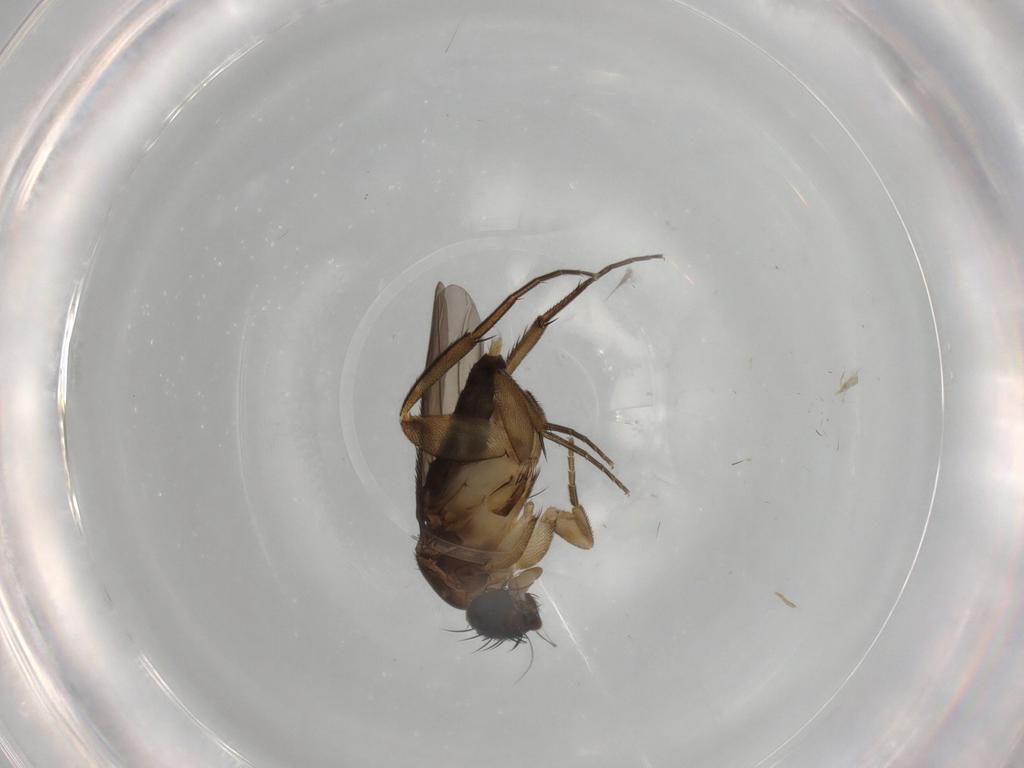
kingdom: Animalia
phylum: Arthropoda
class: Insecta
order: Diptera
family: Phoridae
